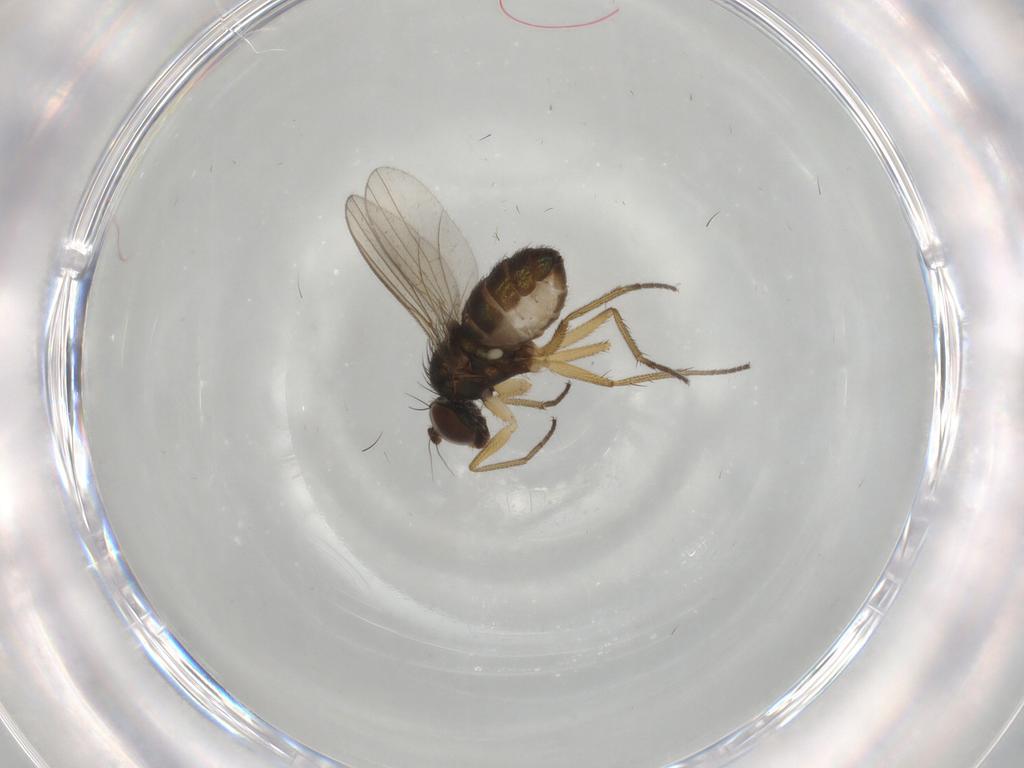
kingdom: Animalia
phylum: Arthropoda
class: Insecta
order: Diptera
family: Dolichopodidae
